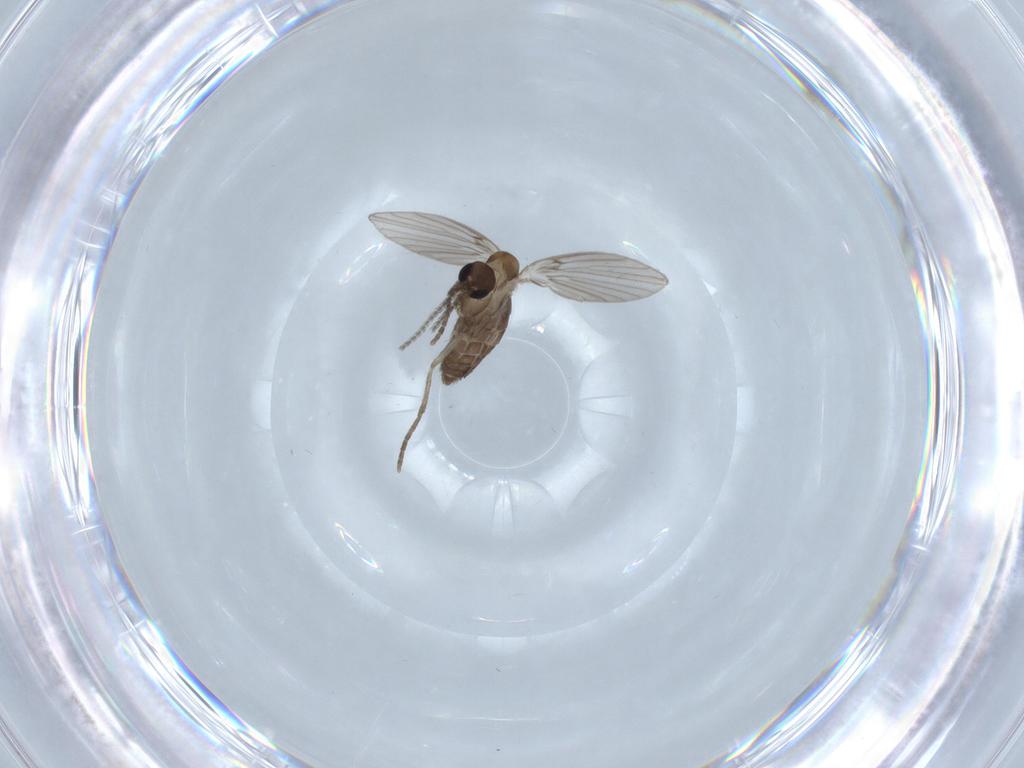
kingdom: Animalia
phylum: Arthropoda
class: Insecta
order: Diptera
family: Psychodidae
